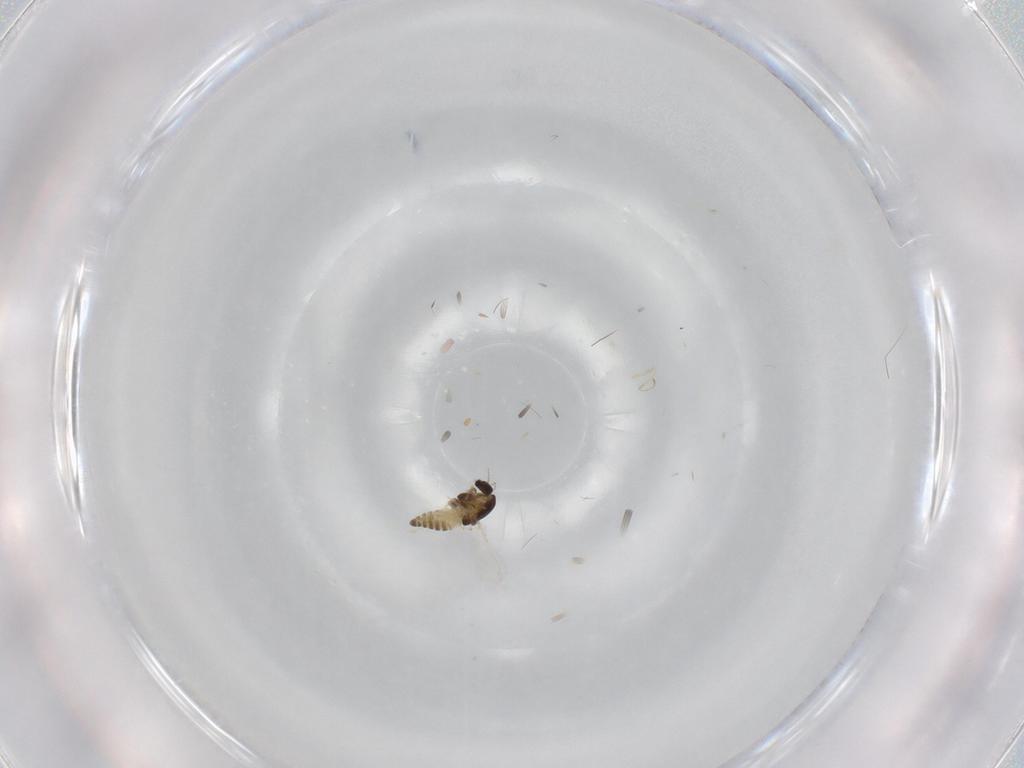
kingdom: Animalia
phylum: Arthropoda
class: Insecta
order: Diptera
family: Chironomidae
